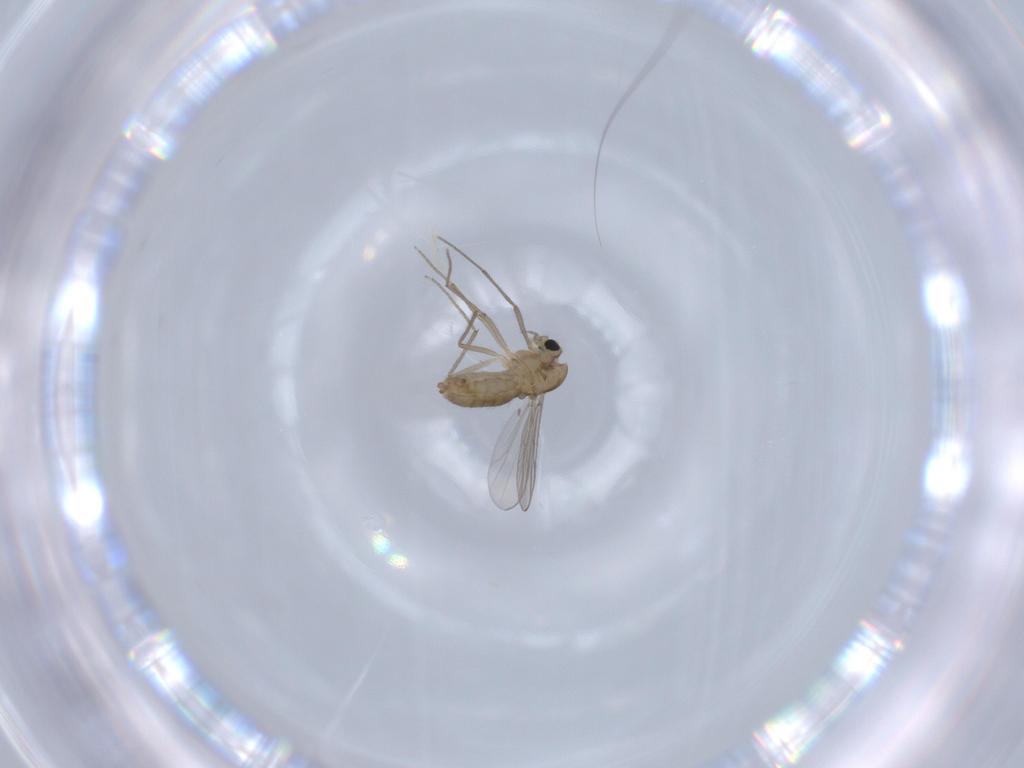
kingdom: Animalia
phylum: Arthropoda
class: Insecta
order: Diptera
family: Chironomidae
